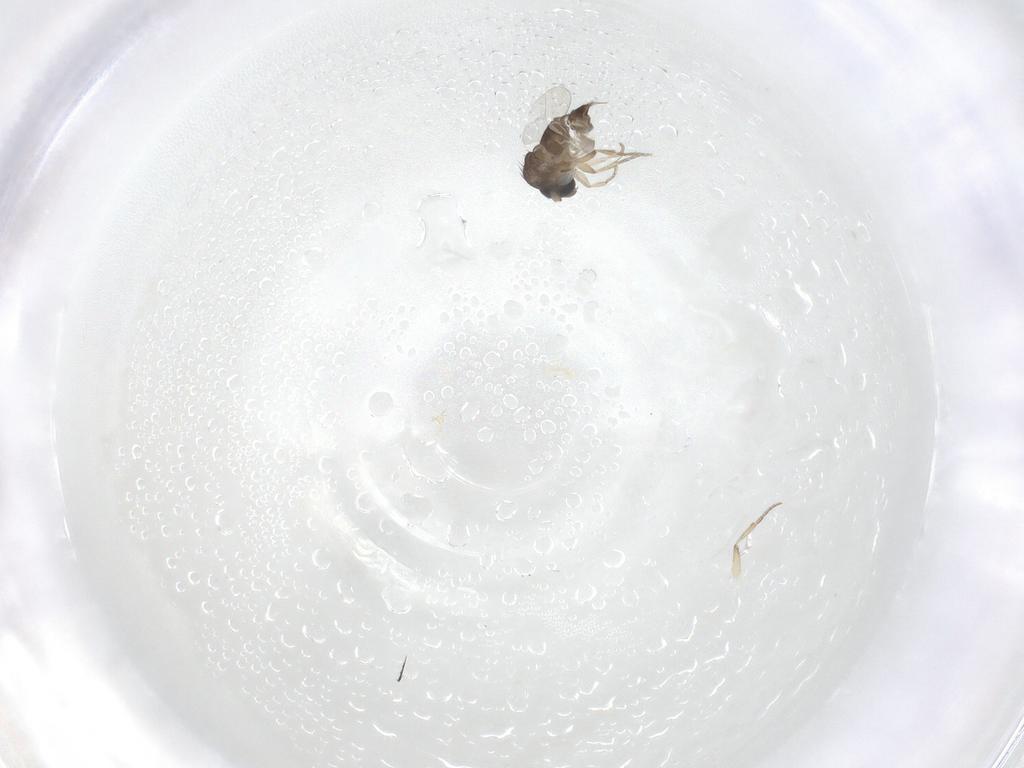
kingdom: Animalia
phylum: Arthropoda
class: Insecta
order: Diptera
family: Phoridae
